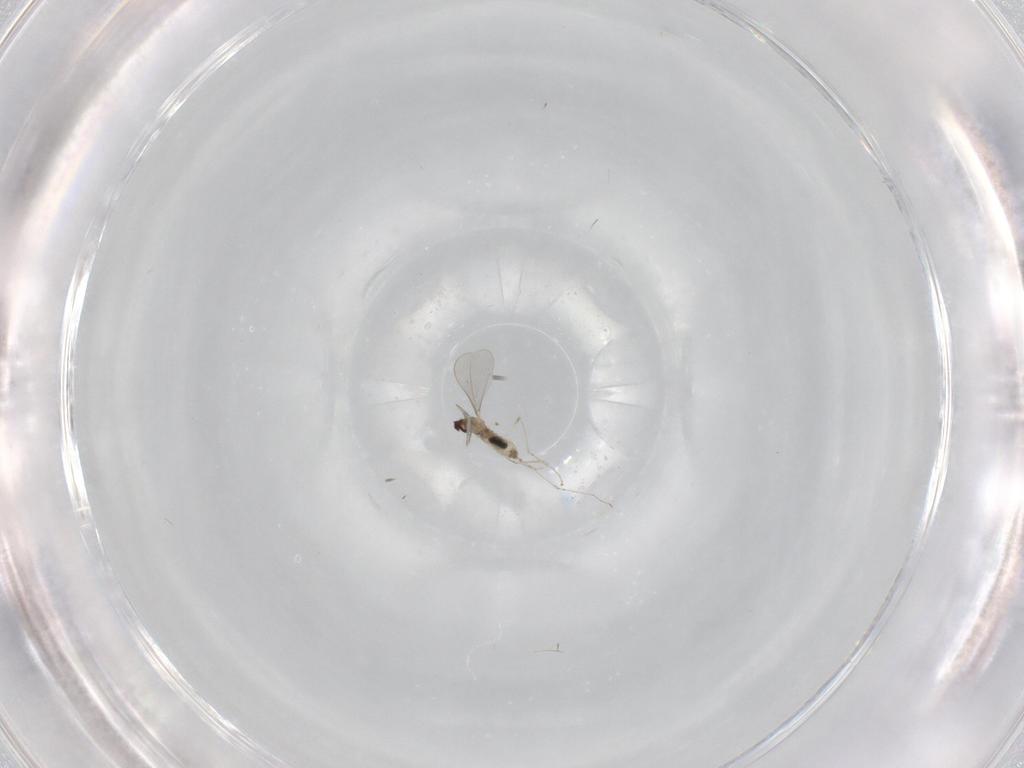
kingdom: Animalia
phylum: Arthropoda
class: Insecta
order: Diptera
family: Cecidomyiidae
